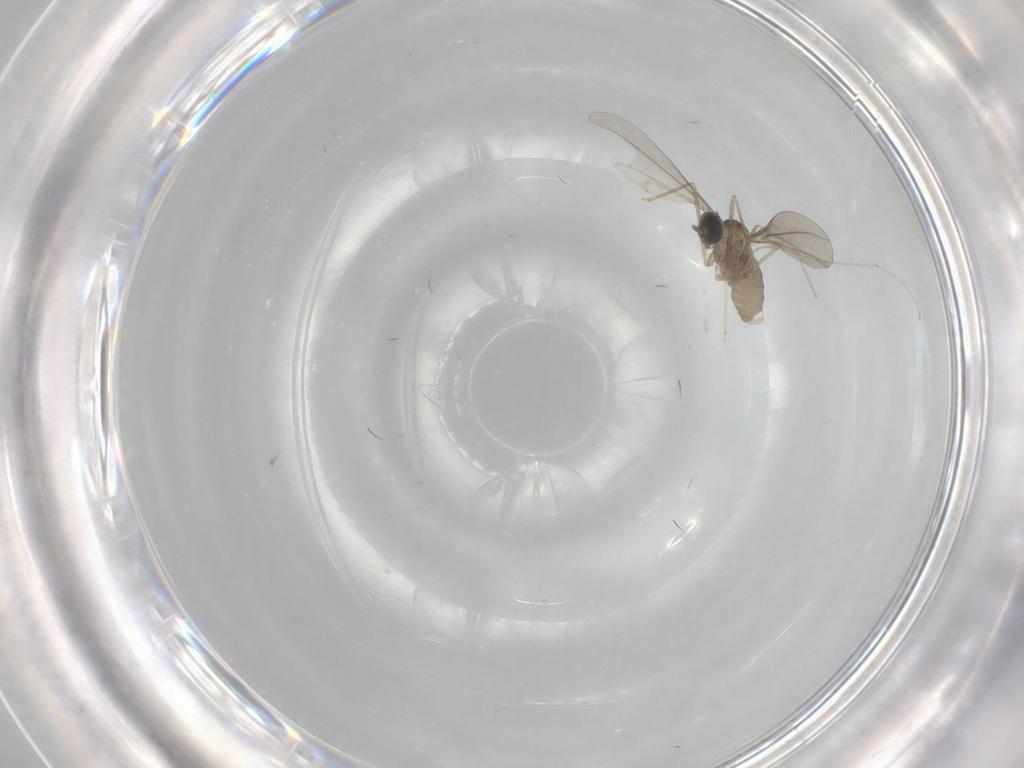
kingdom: Animalia
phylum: Arthropoda
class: Insecta
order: Diptera
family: Cecidomyiidae
